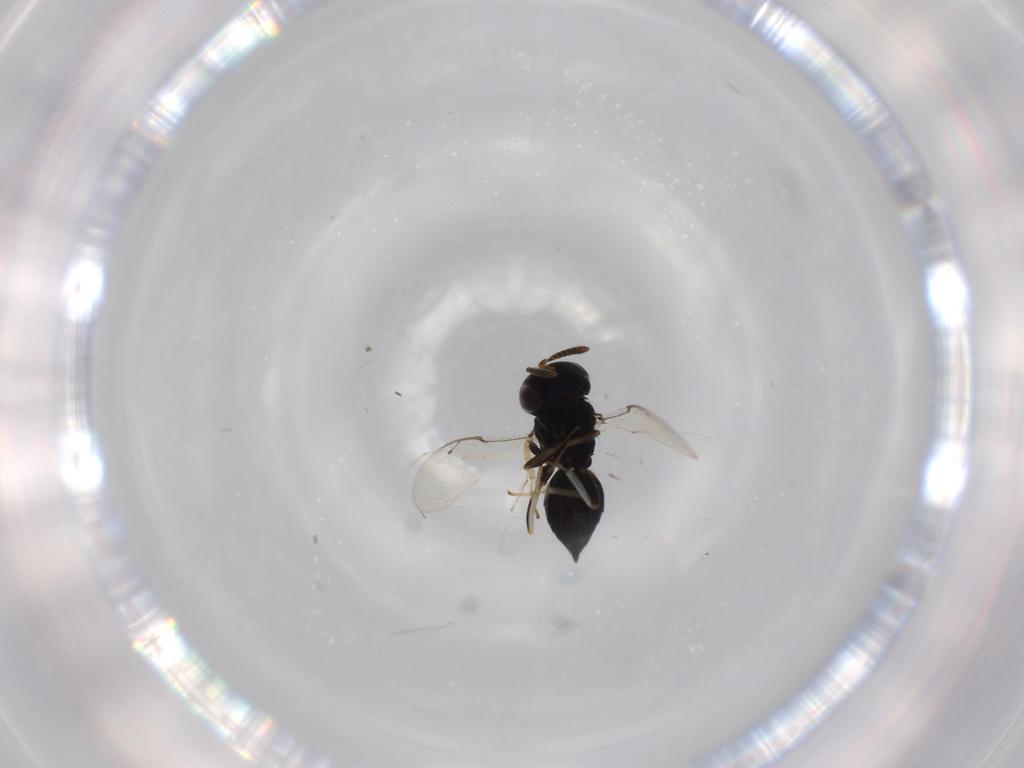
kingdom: Animalia
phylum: Arthropoda
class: Insecta
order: Hymenoptera
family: Pteromalidae
